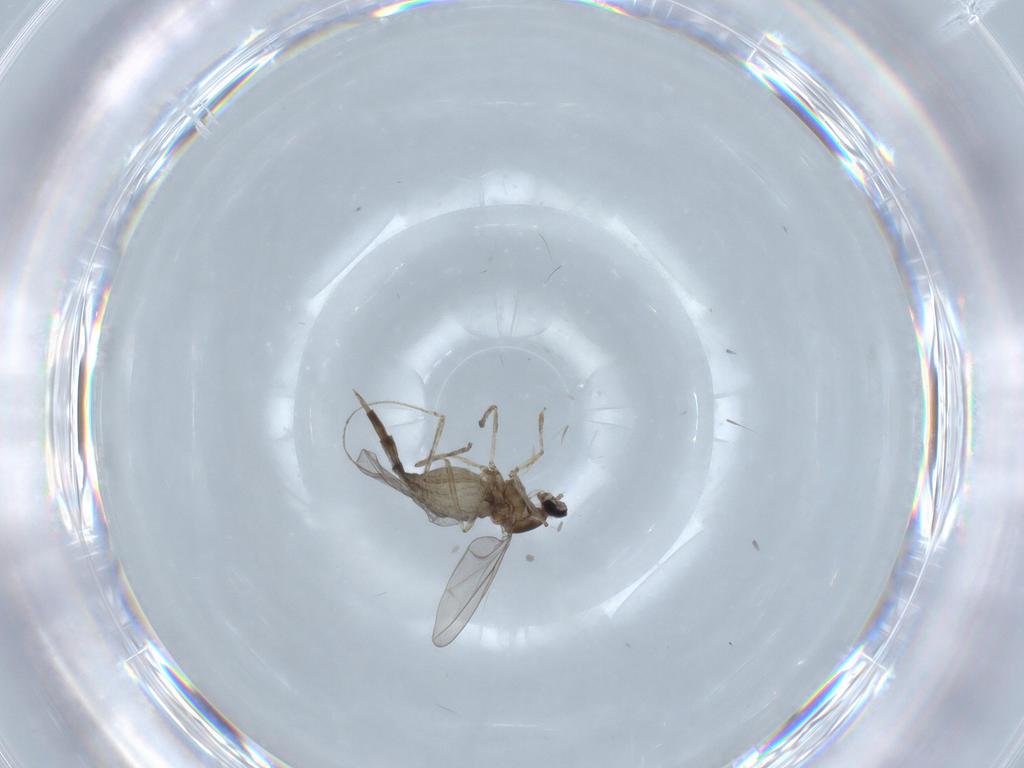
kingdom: Animalia
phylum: Arthropoda
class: Insecta
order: Diptera
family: Cecidomyiidae
